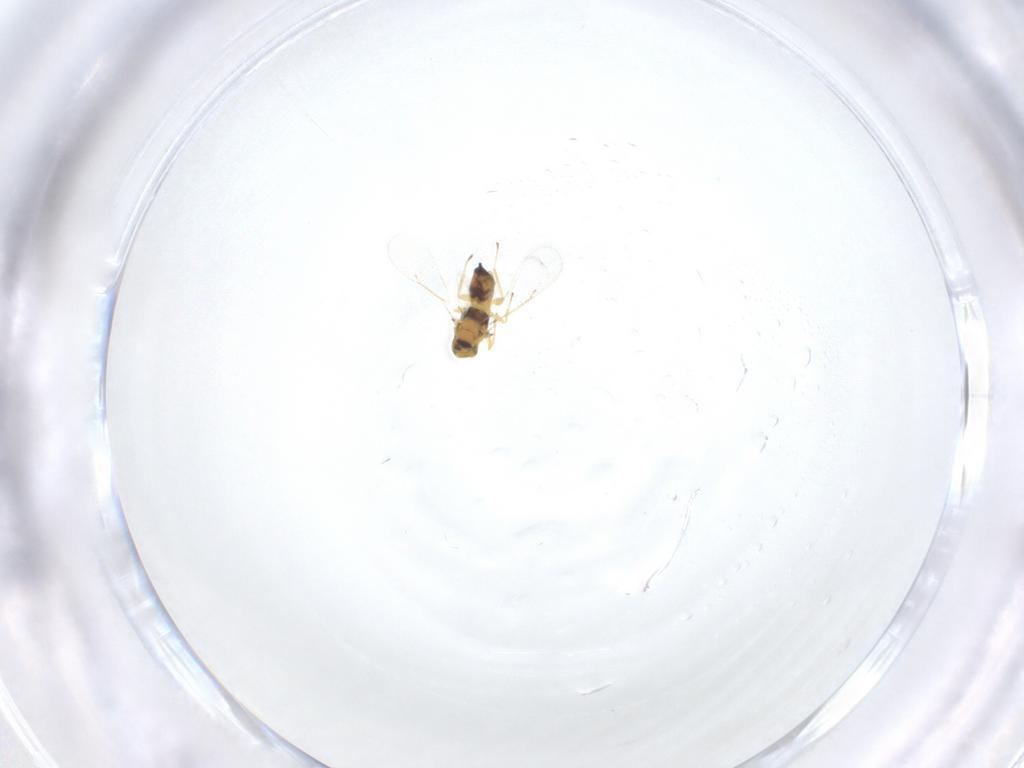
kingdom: Animalia
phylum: Arthropoda
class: Insecta
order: Hymenoptera
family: Eulophidae
